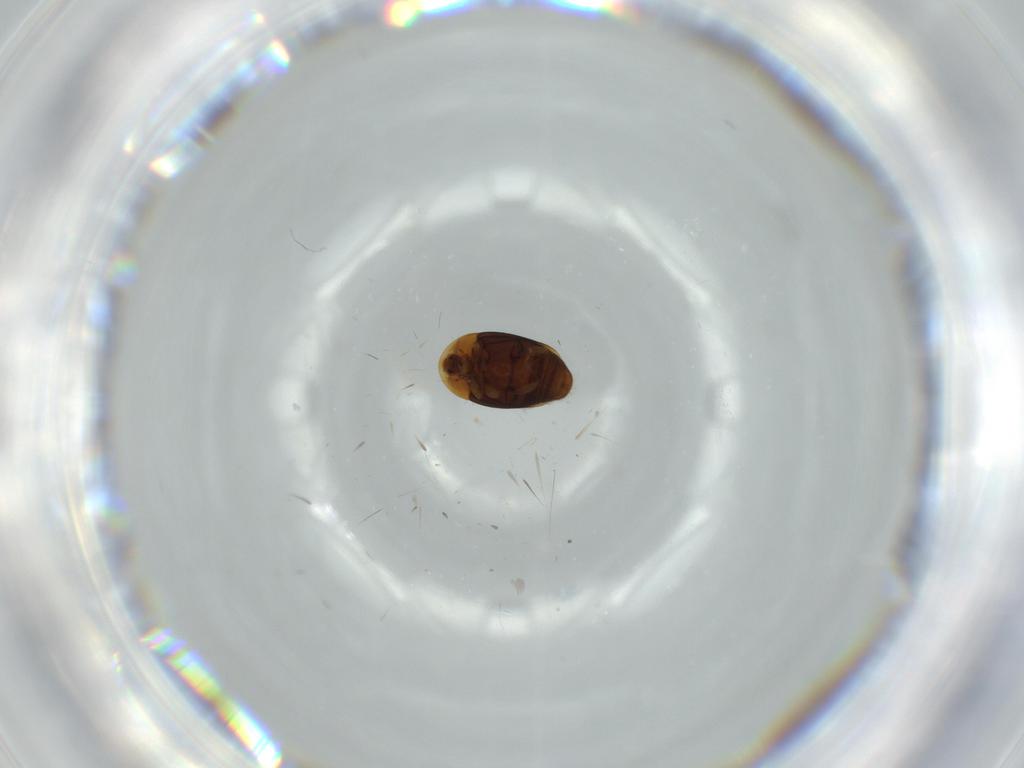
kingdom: Animalia
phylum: Arthropoda
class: Insecta
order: Coleoptera
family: Corylophidae
